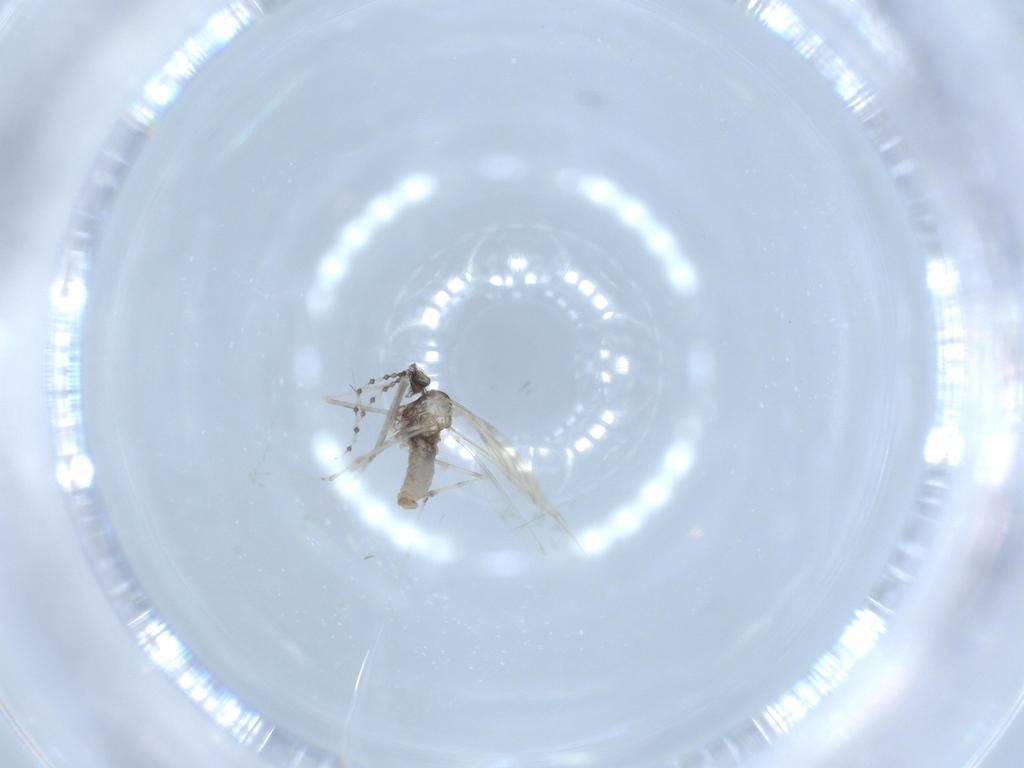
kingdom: Animalia
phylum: Arthropoda
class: Insecta
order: Diptera
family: Cecidomyiidae
